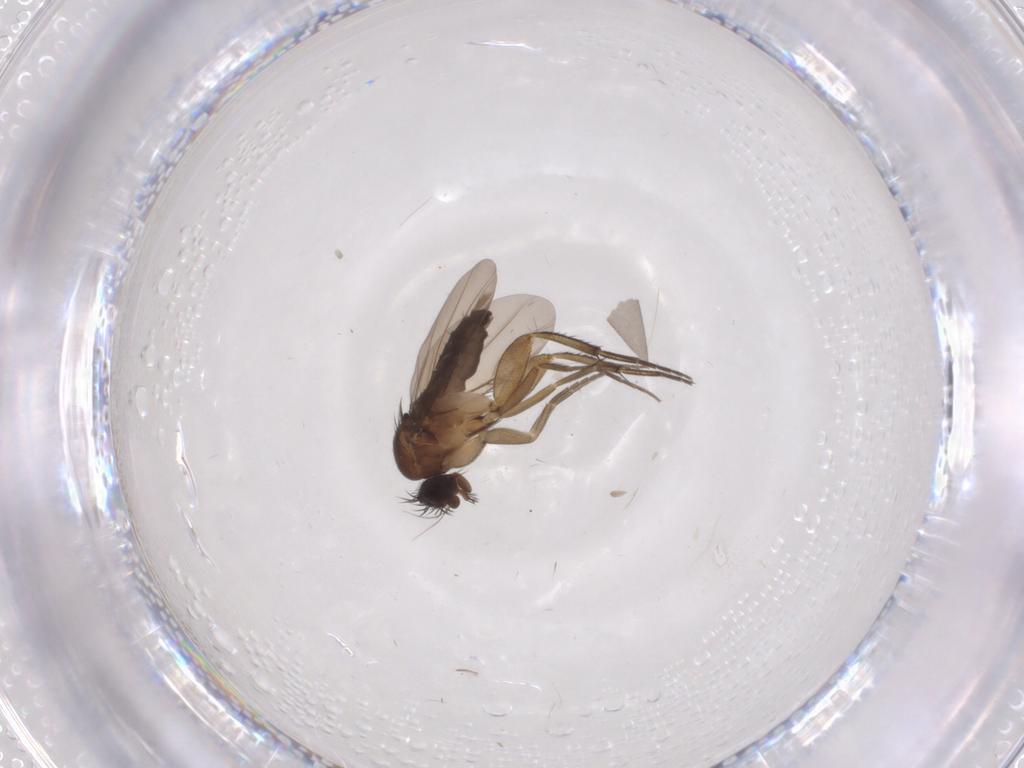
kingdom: Animalia
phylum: Arthropoda
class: Insecta
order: Diptera
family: Phoridae
